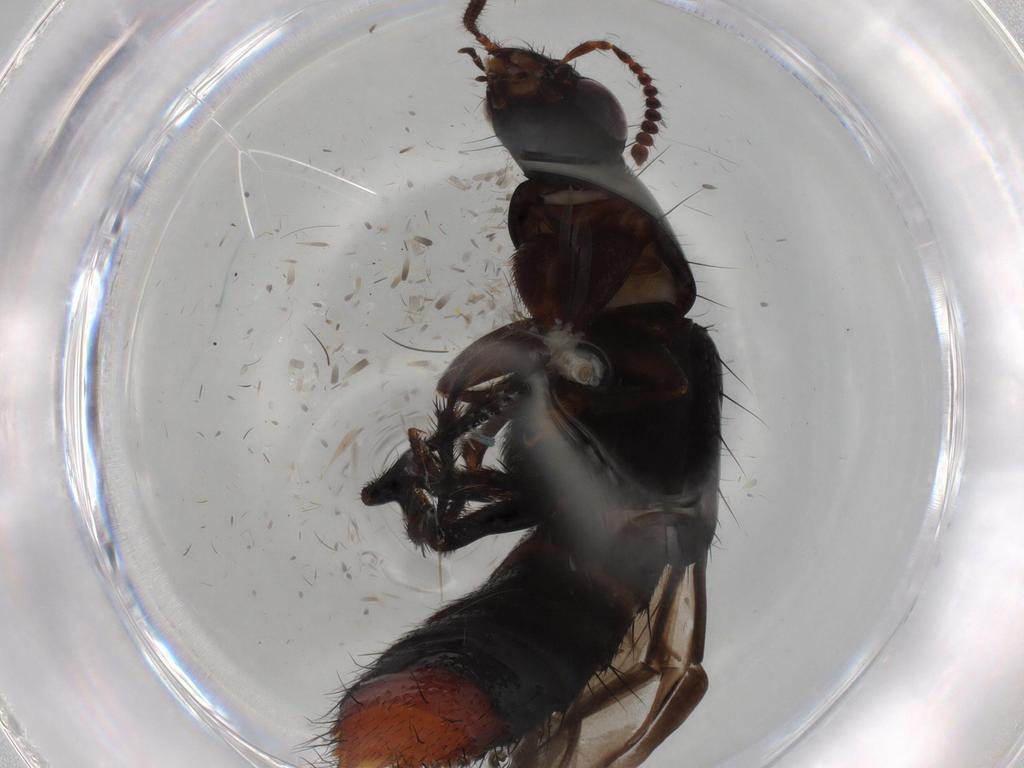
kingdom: Animalia
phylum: Arthropoda
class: Insecta
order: Coleoptera
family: Staphylinidae
